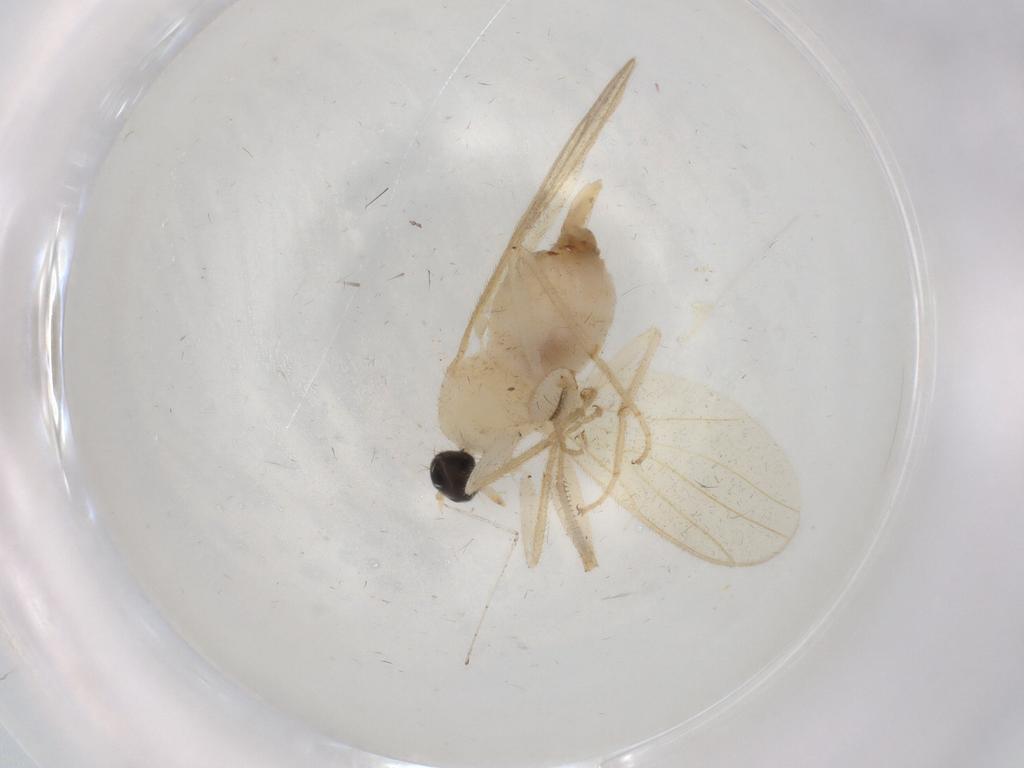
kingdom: Animalia
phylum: Arthropoda
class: Insecta
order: Diptera
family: Hybotidae
